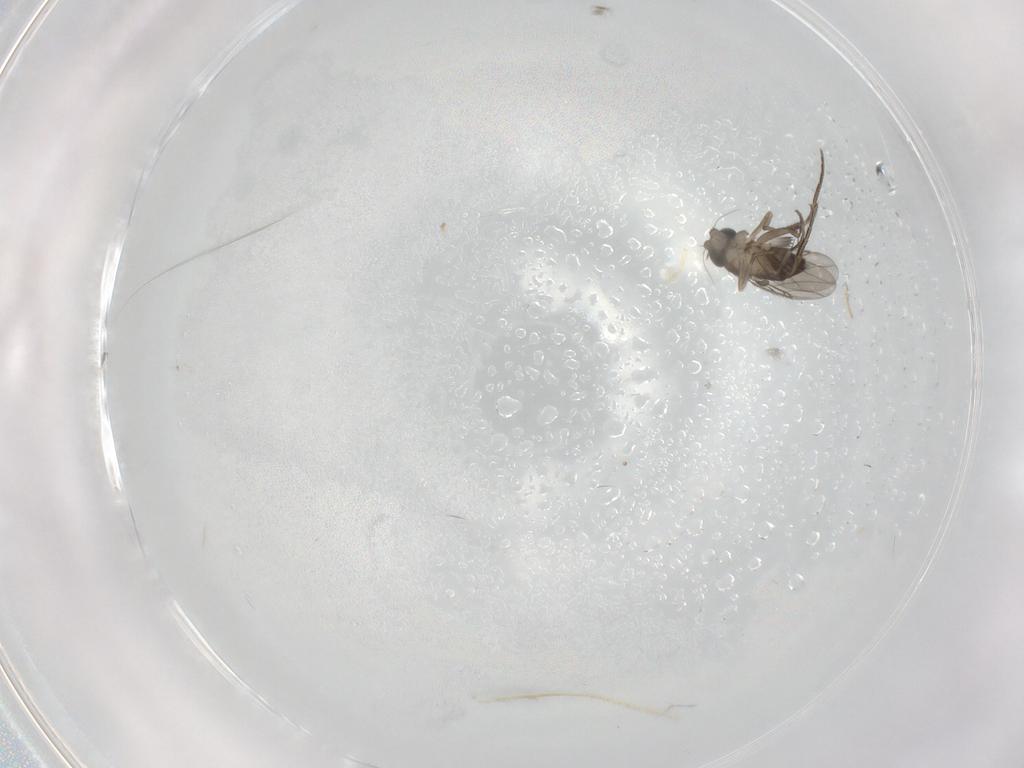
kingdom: Animalia
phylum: Arthropoda
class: Insecta
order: Diptera
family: Phoridae
